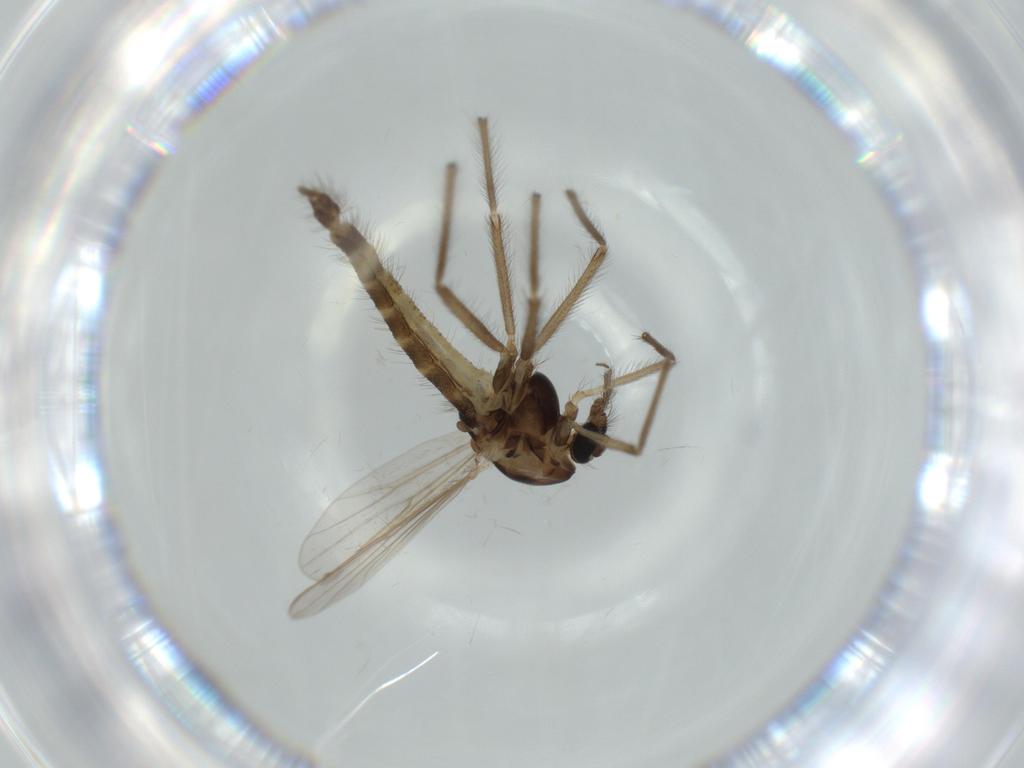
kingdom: Animalia
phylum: Arthropoda
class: Insecta
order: Diptera
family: Chironomidae
